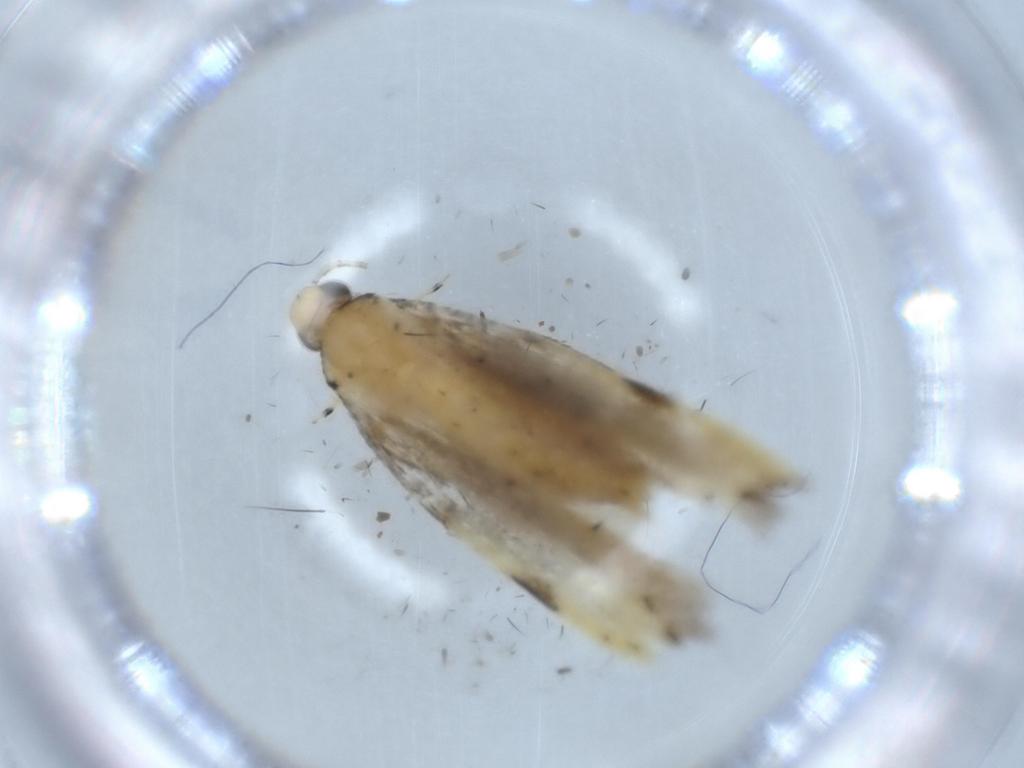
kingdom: Animalia
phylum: Arthropoda
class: Insecta
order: Lepidoptera
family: Autostichidae
